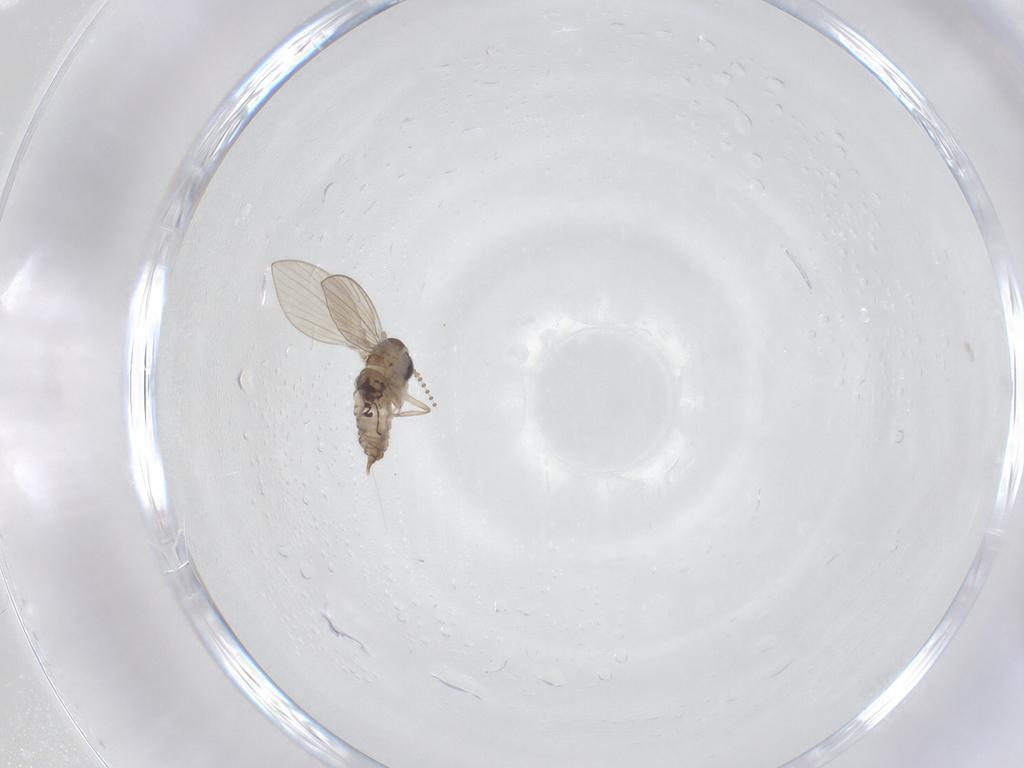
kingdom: Animalia
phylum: Arthropoda
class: Insecta
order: Diptera
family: Psychodidae
